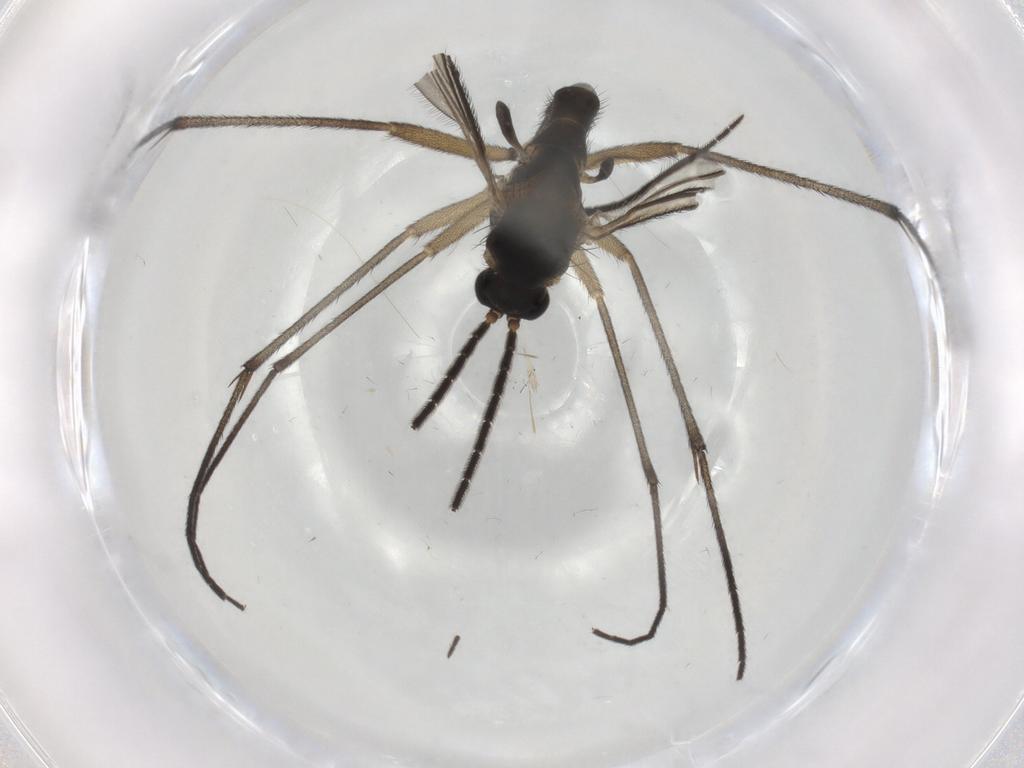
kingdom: Animalia
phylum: Arthropoda
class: Insecta
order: Diptera
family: Sciaridae
